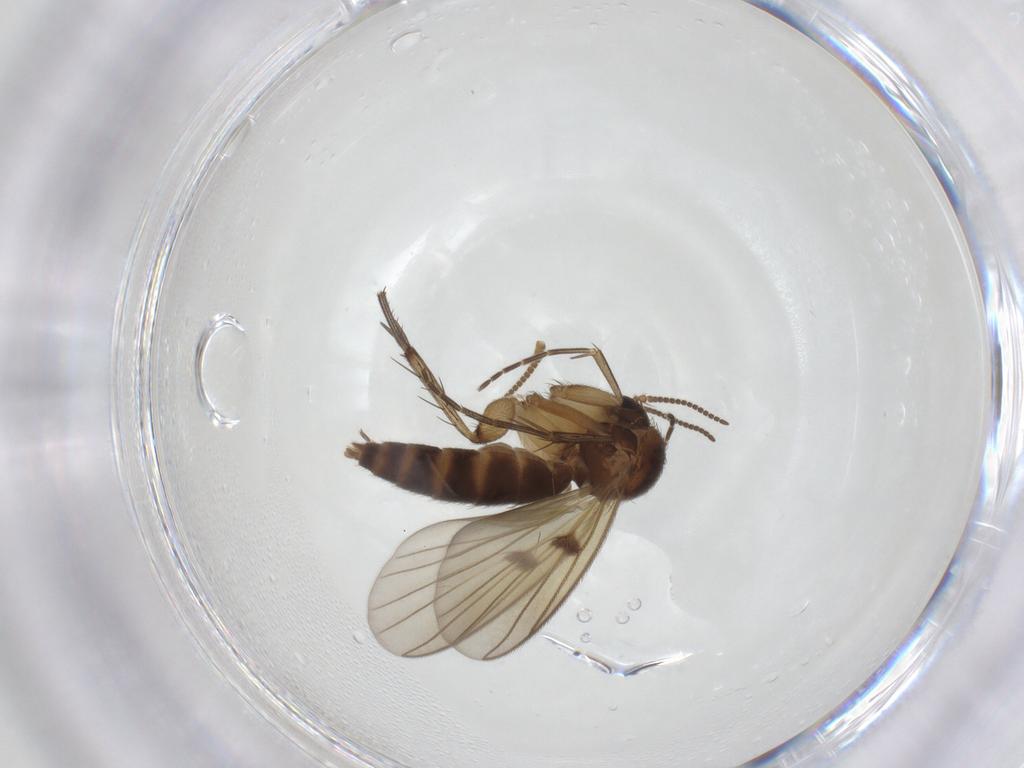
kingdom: Animalia
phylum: Arthropoda
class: Insecta
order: Diptera
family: Chironomidae
